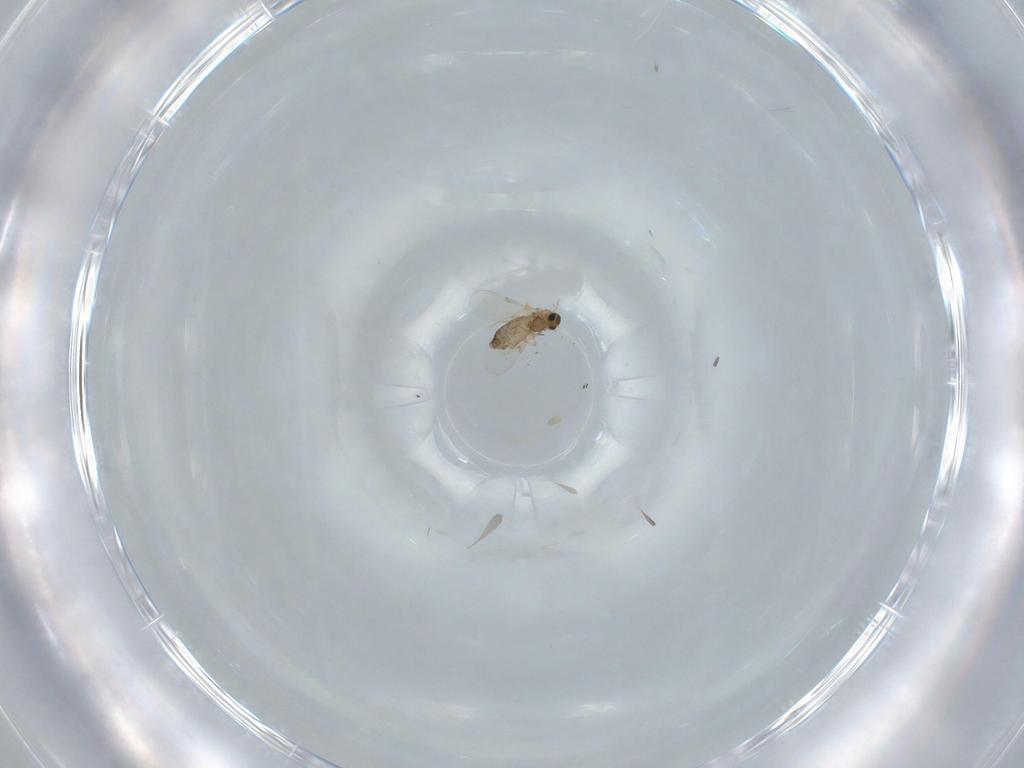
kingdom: Animalia
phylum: Arthropoda
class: Insecta
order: Diptera
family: Chironomidae
